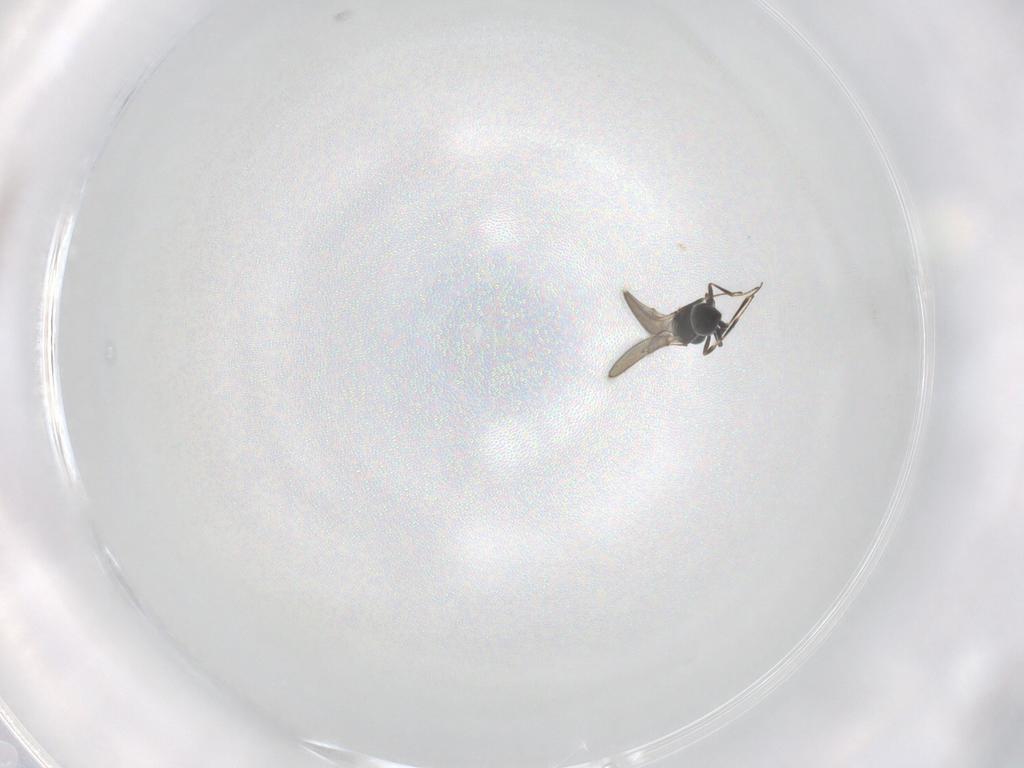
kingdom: Animalia
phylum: Arthropoda
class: Insecta
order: Hymenoptera
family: Scelionidae
